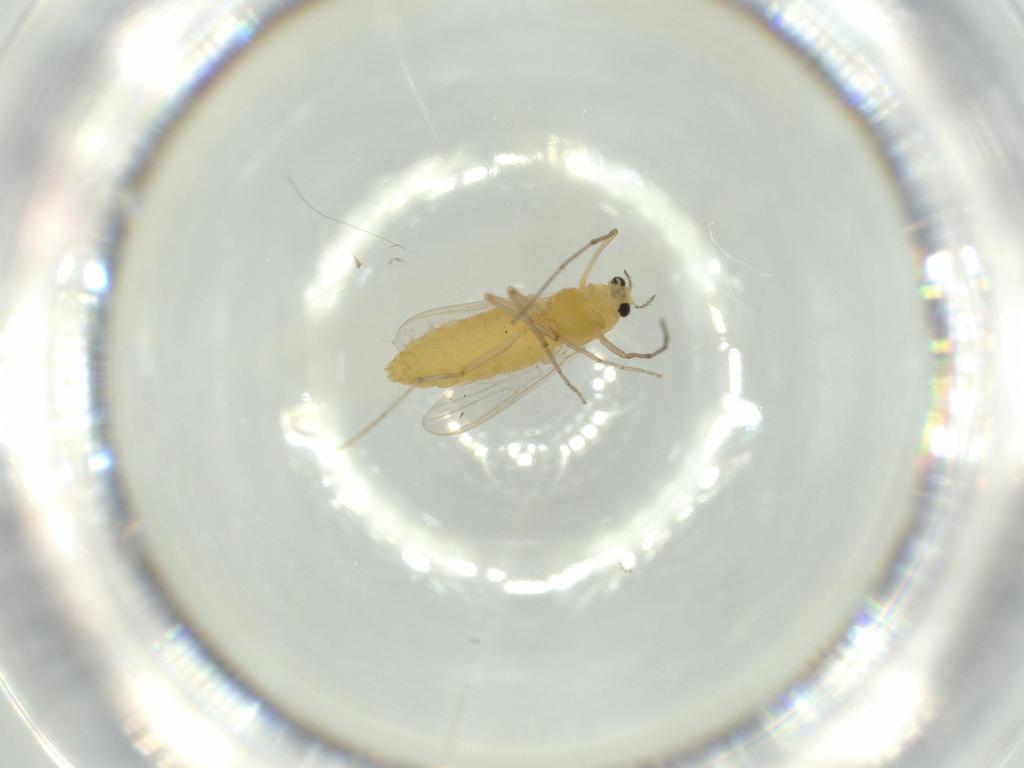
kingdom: Animalia
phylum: Arthropoda
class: Insecta
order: Diptera
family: Chironomidae
